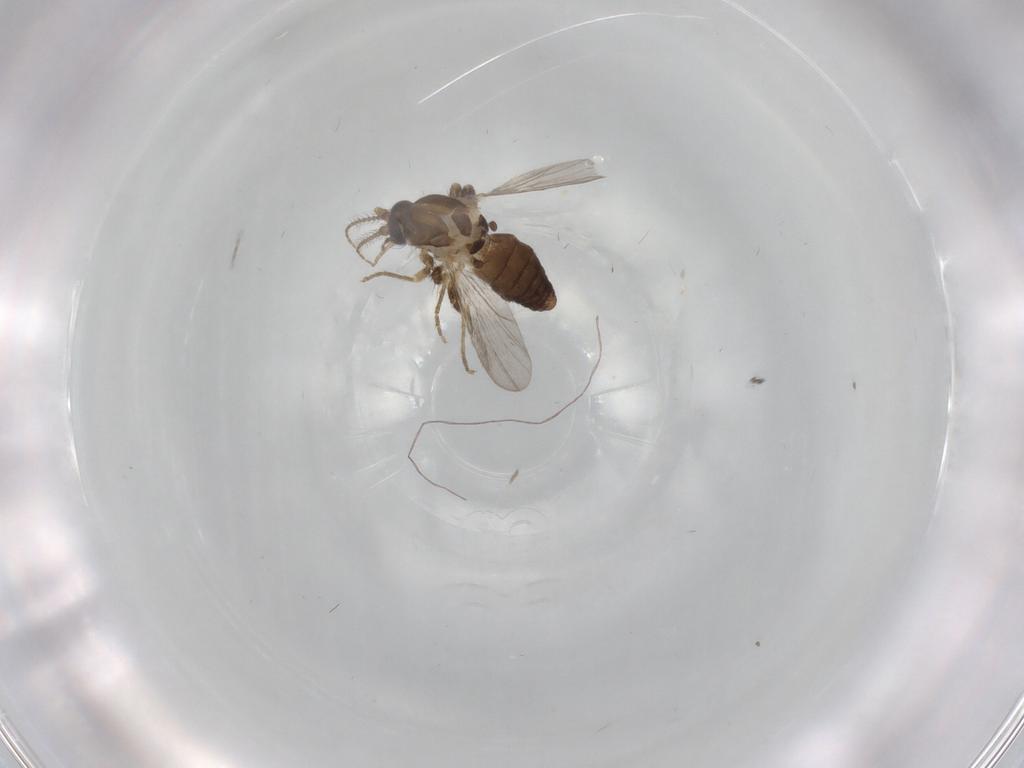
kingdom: Animalia
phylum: Arthropoda
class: Insecta
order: Diptera
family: Ceratopogonidae
